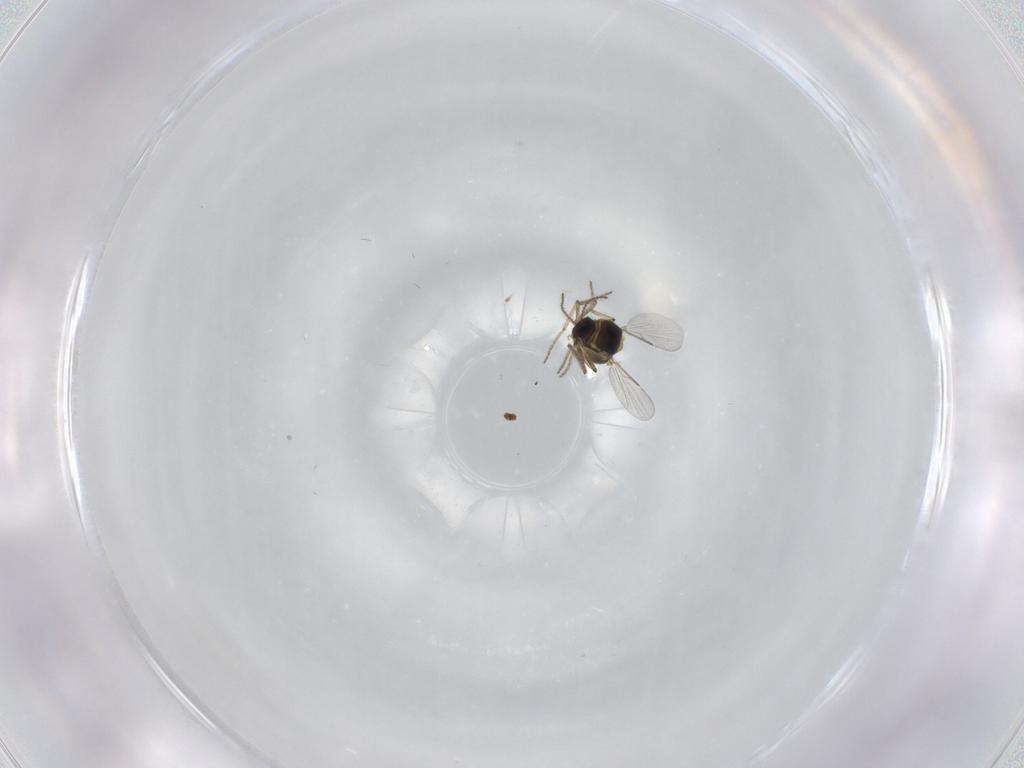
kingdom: Animalia
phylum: Arthropoda
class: Insecta
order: Diptera
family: Ceratopogonidae
